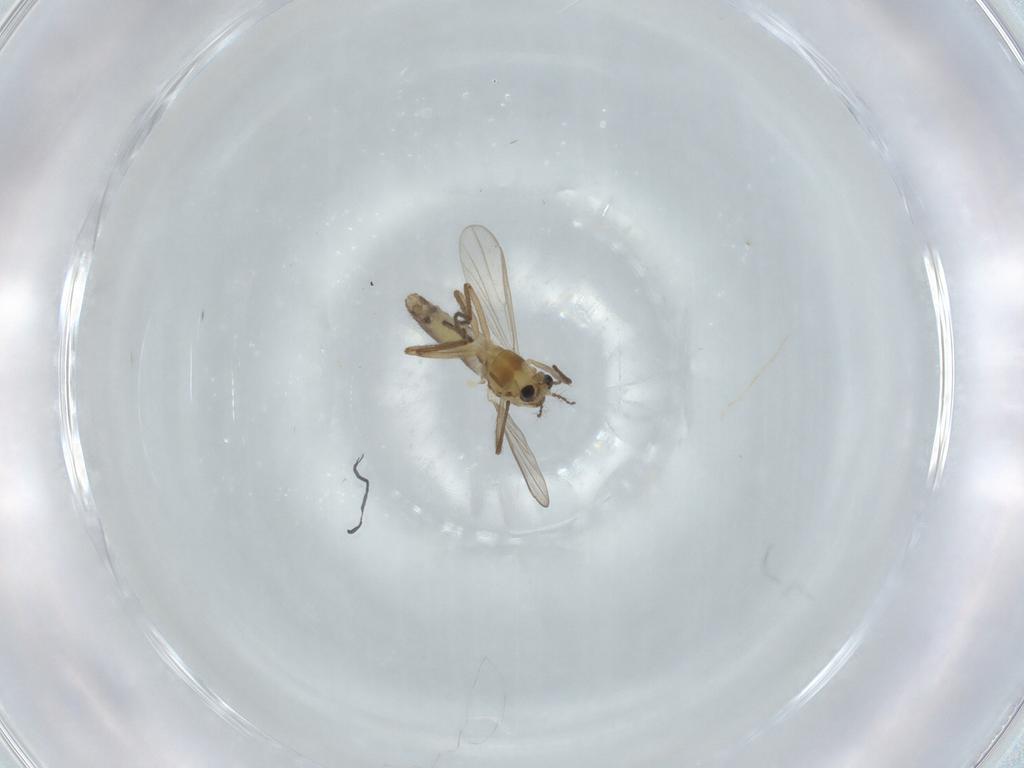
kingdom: Animalia
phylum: Arthropoda
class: Insecta
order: Diptera
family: Chironomidae
